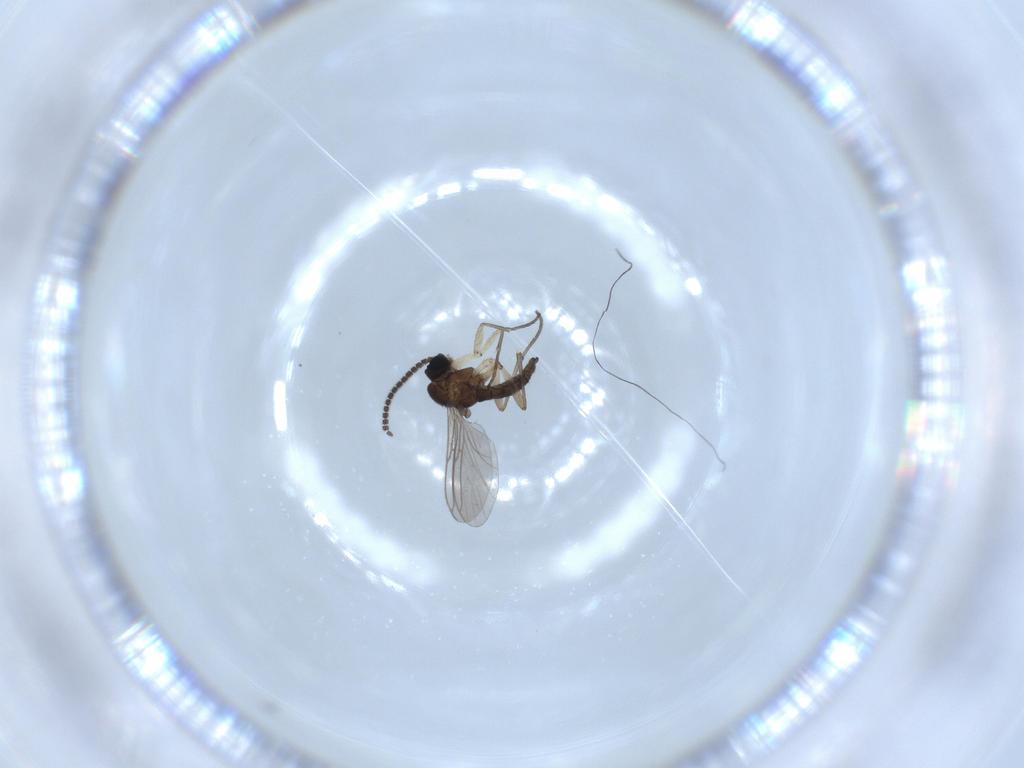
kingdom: Animalia
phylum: Arthropoda
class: Insecta
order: Diptera
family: Sciaridae
